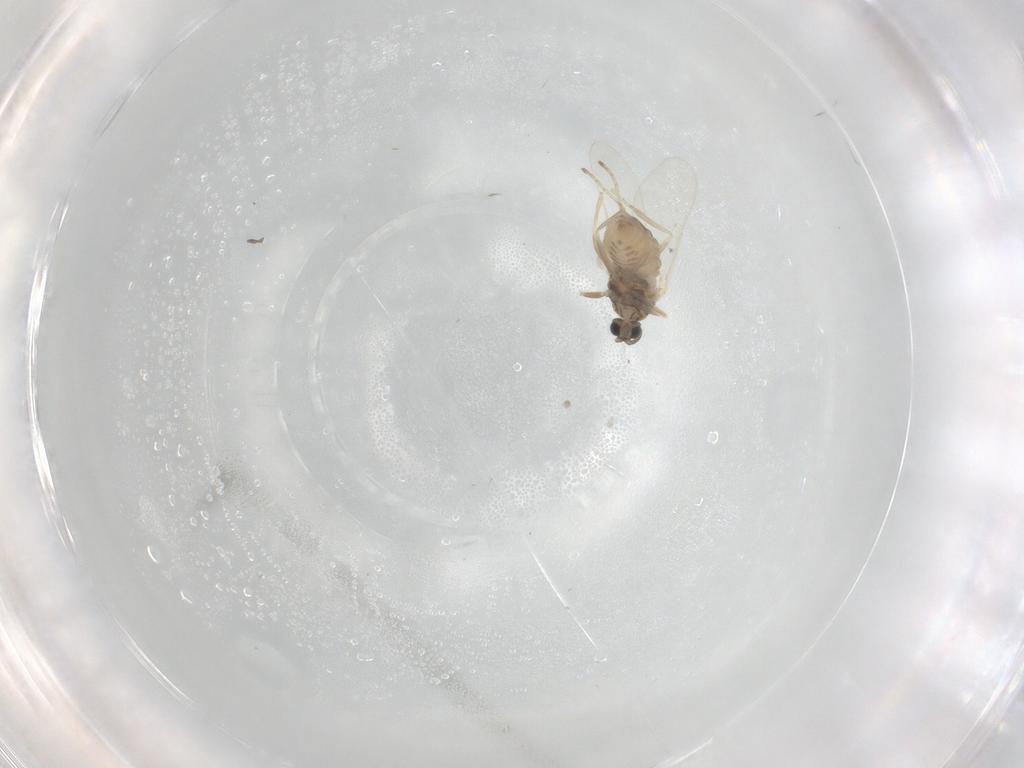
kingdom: Animalia
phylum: Arthropoda
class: Insecta
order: Diptera
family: Cecidomyiidae
